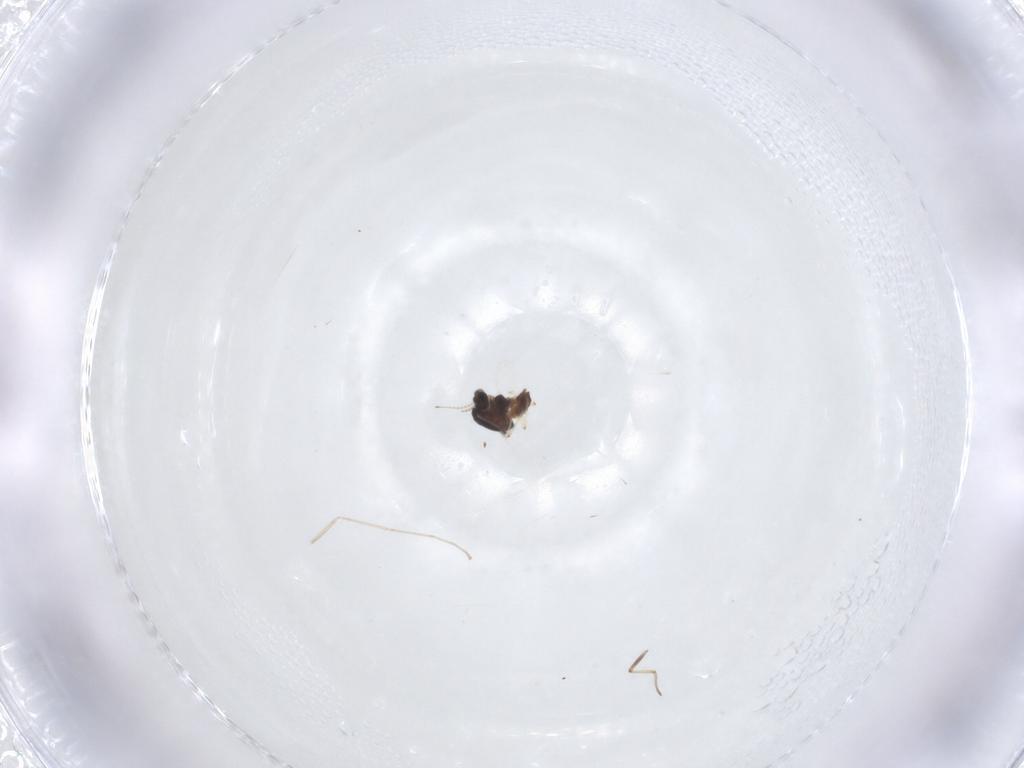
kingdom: Animalia
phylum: Arthropoda
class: Insecta
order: Diptera
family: Chironomidae
